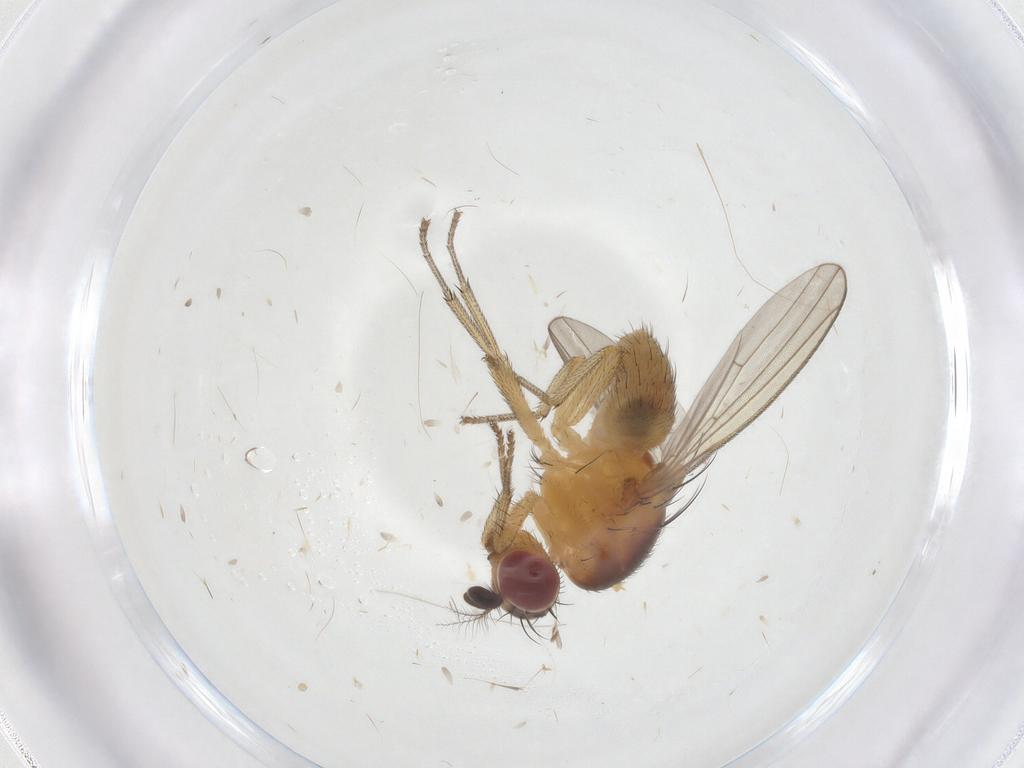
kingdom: Animalia
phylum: Arthropoda
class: Insecta
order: Diptera
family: Cecidomyiidae
